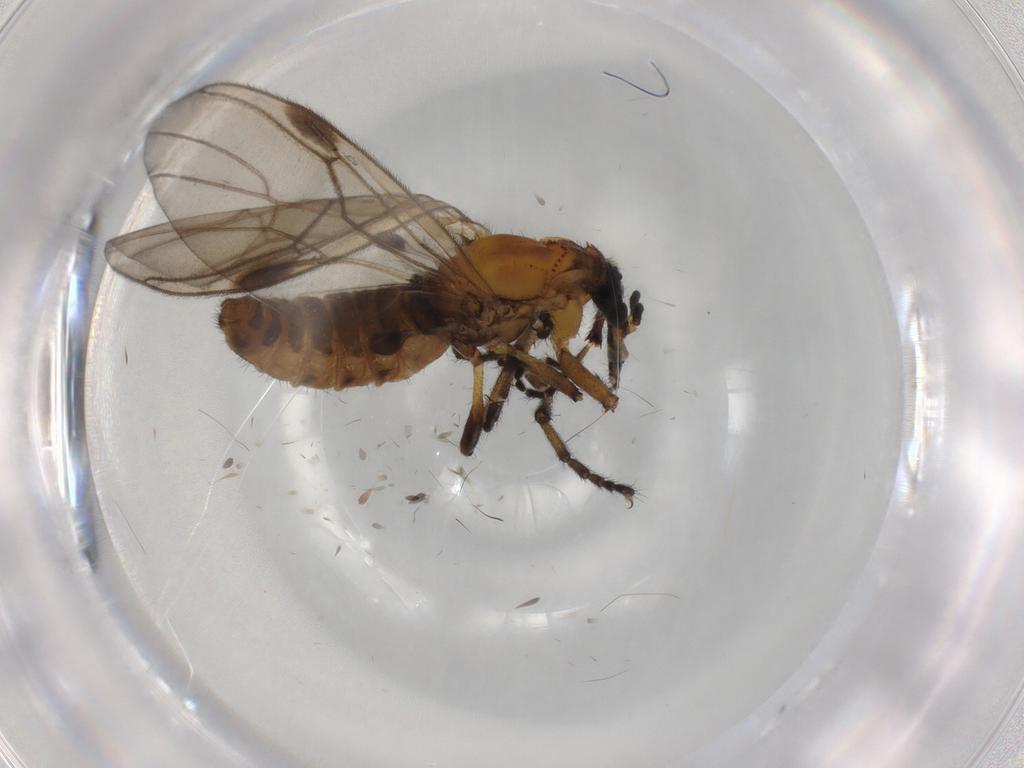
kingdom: Animalia
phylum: Arthropoda
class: Insecta
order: Diptera
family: Bibionidae
